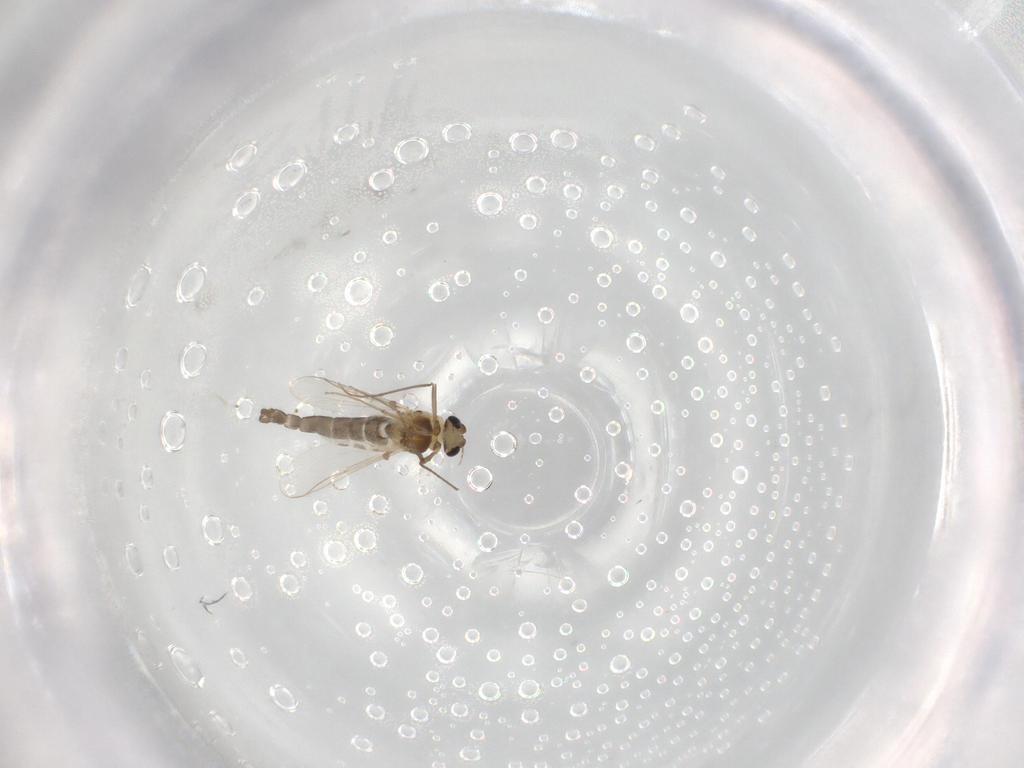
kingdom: Animalia
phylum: Arthropoda
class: Insecta
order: Diptera
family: Chironomidae
